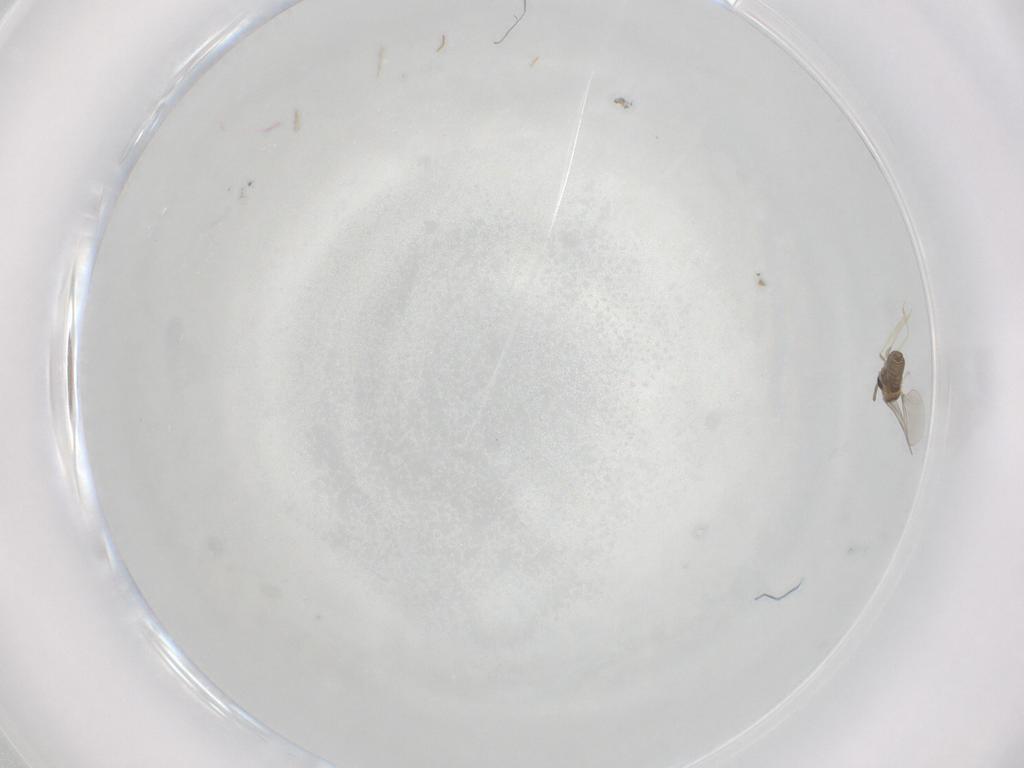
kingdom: Animalia
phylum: Arthropoda
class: Insecta
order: Diptera
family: Cecidomyiidae
